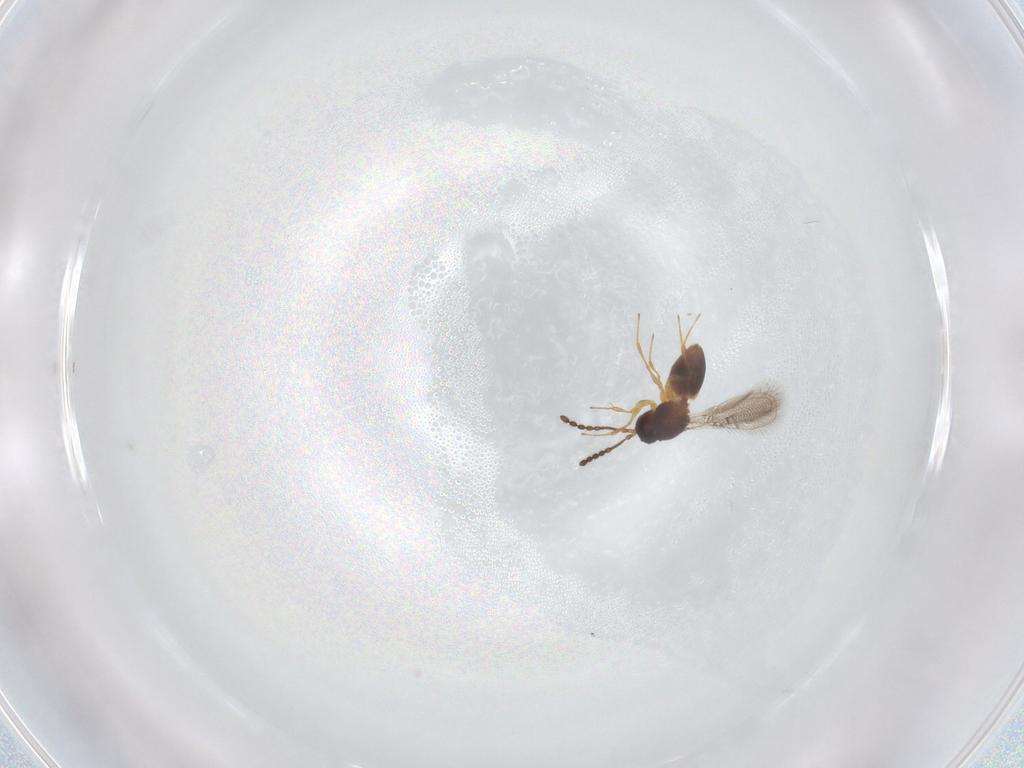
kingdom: Animalia
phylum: Arthropoda
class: Insecta
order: Hymenoptera
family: Figitidae
